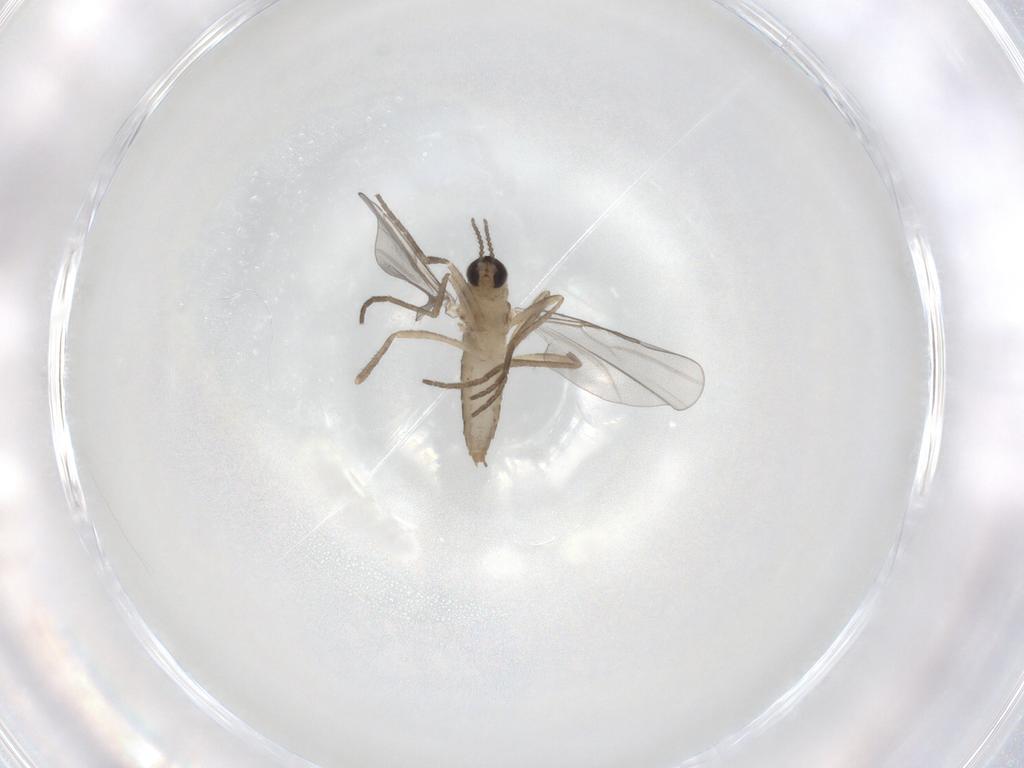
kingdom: Animalia
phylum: Arthropoda
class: Insecta
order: Diptera
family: Cecidomyiidae
